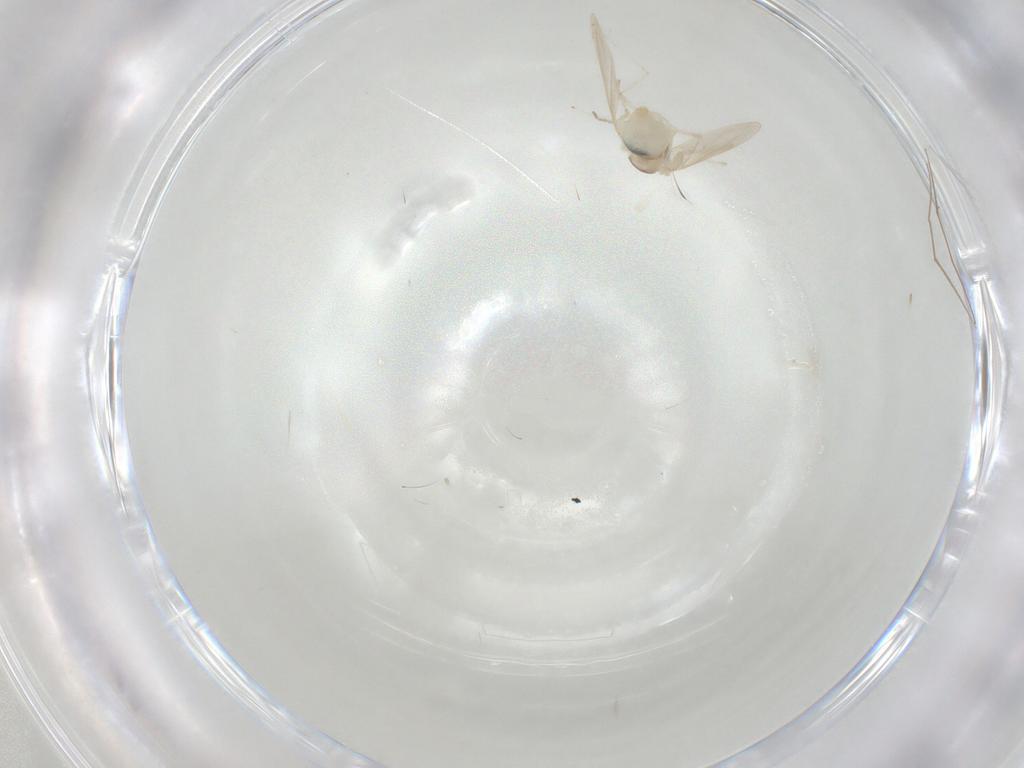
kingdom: Animalia
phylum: Arthropoda
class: Insecta
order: Diptera
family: Cecidomyiidae
